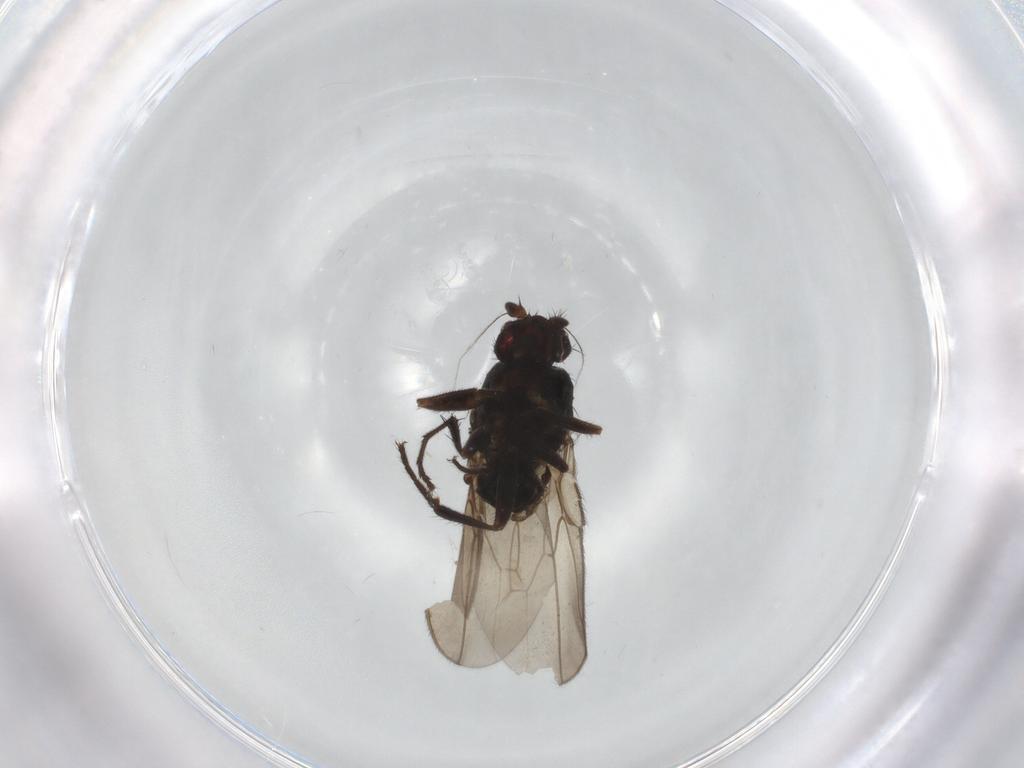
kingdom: Animalia
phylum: Arthropoda
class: Insecta
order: Diptera
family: Sphaeroceridae
